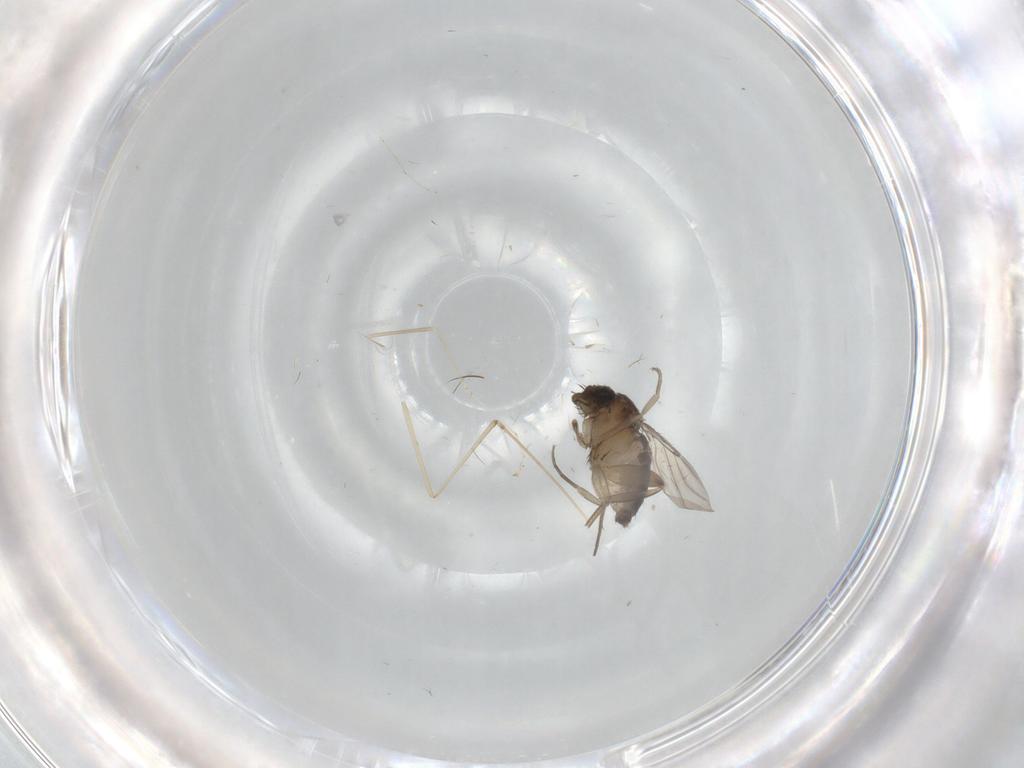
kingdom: Animalia
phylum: Arthropoda
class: Insecta
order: Diptera
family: Phoridae
